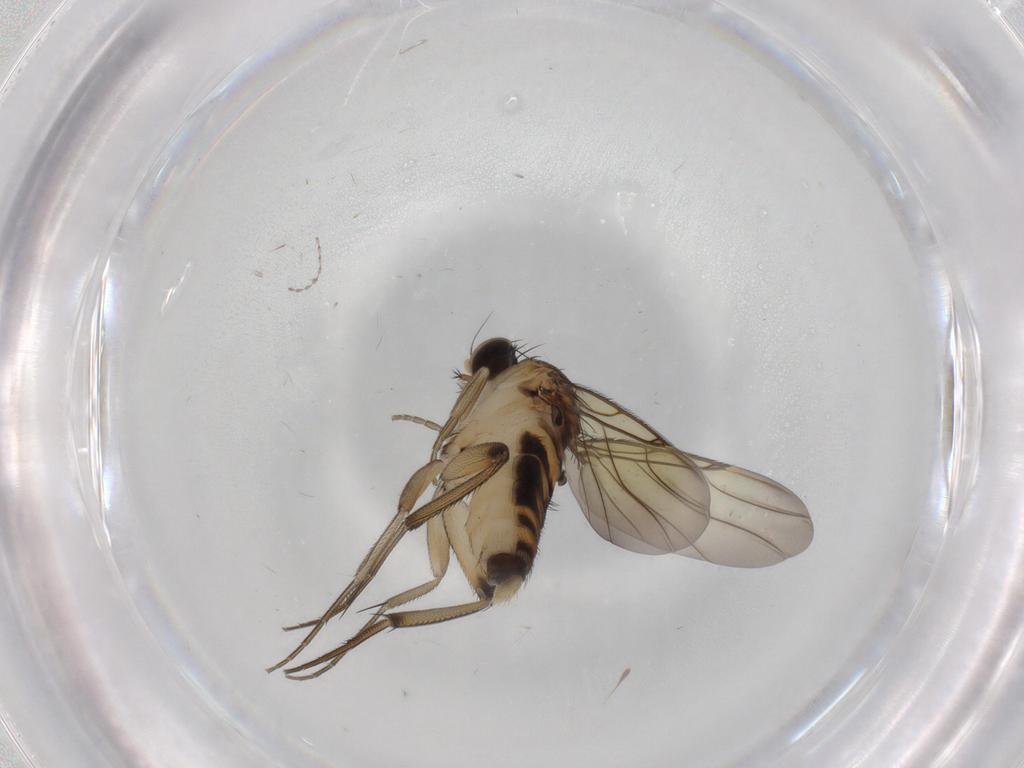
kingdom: Animalia
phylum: Arthropoda
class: Insecta
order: Diptera
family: Phoridae
